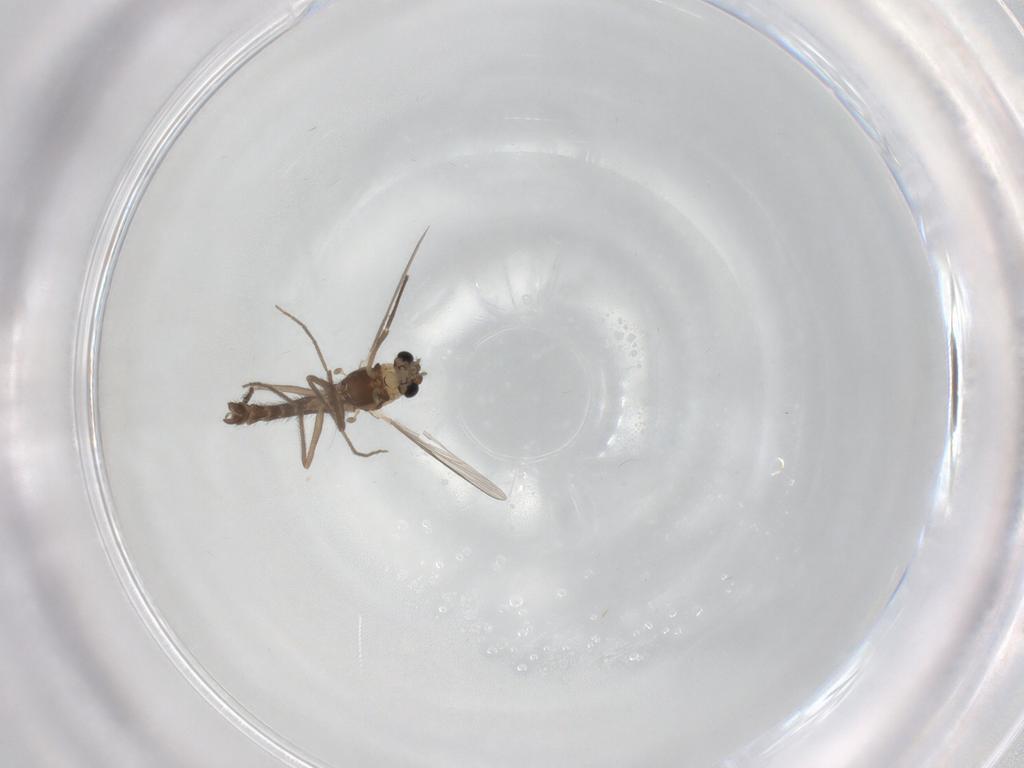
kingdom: Animalia
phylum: Arthropoda
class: Insecta
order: Diptera
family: Chironomidae
